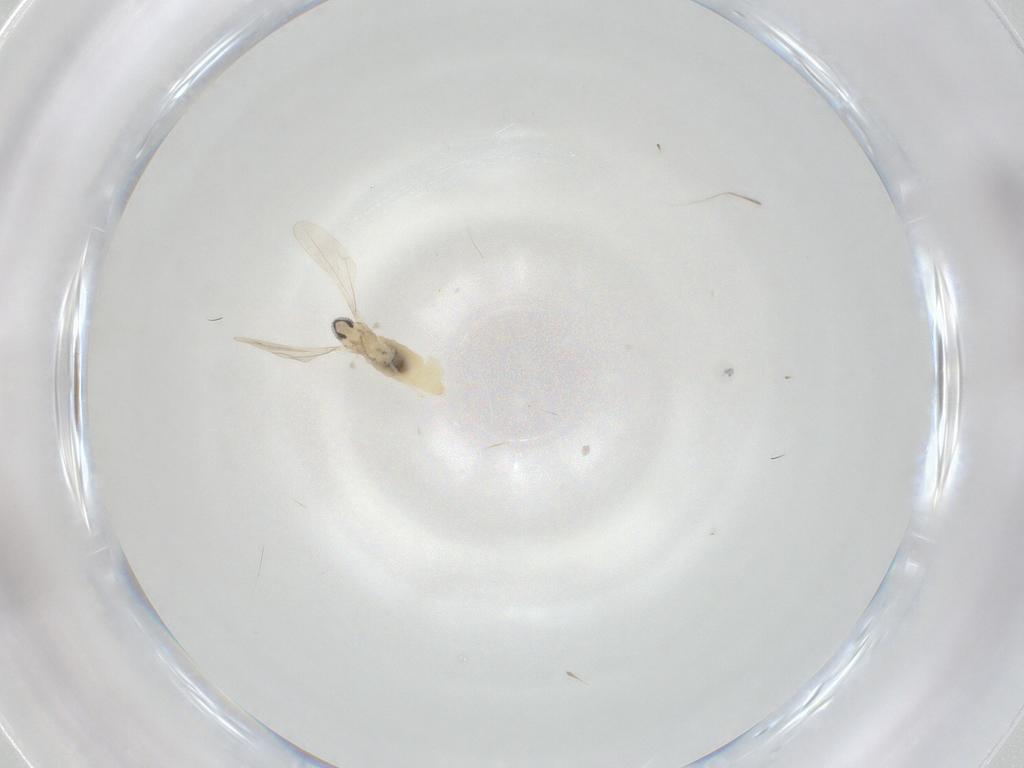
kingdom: Animalia
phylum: Arthropoda
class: Insecta
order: Diptera
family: Cecidomyiidae
